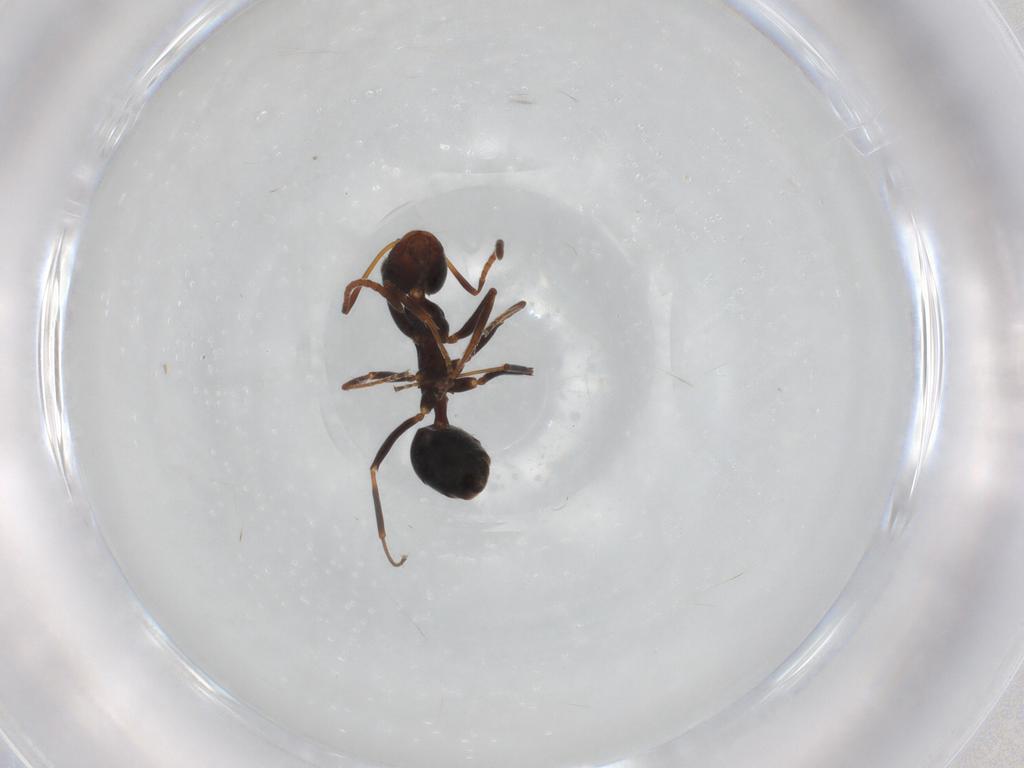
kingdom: Animalia
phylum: Arthropoda
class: Insecta
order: Hymenoptera
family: Formicidae
